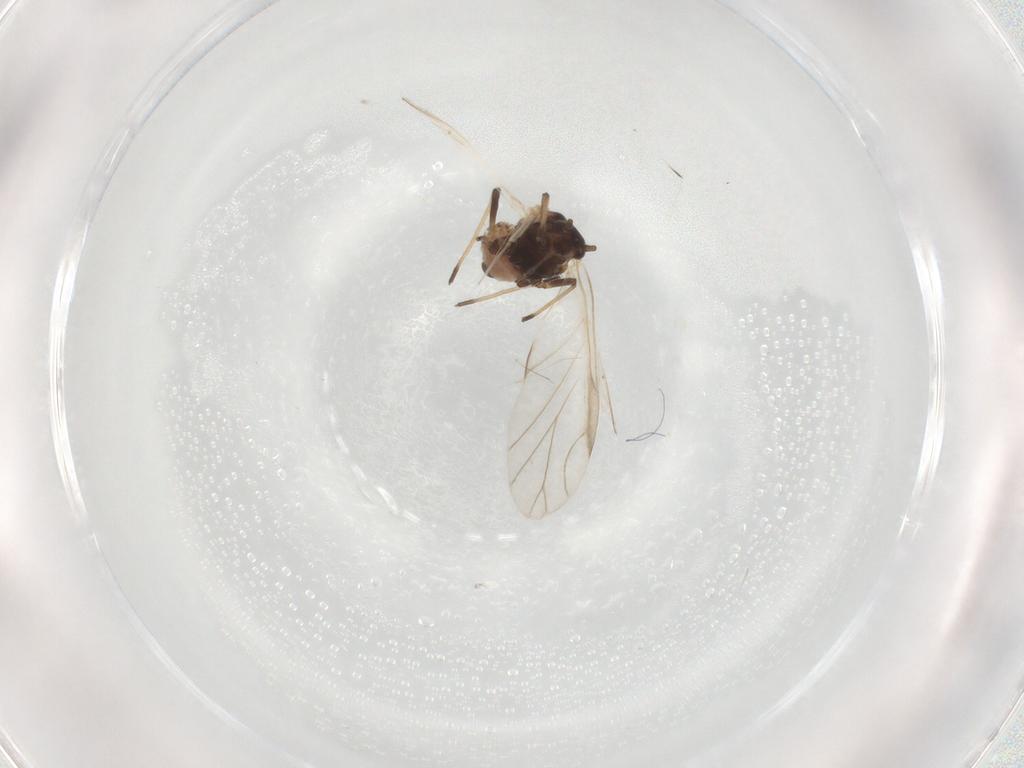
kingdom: Animalia
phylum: Arthropoda
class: Insecta
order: Hemiptera
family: Aphididae
